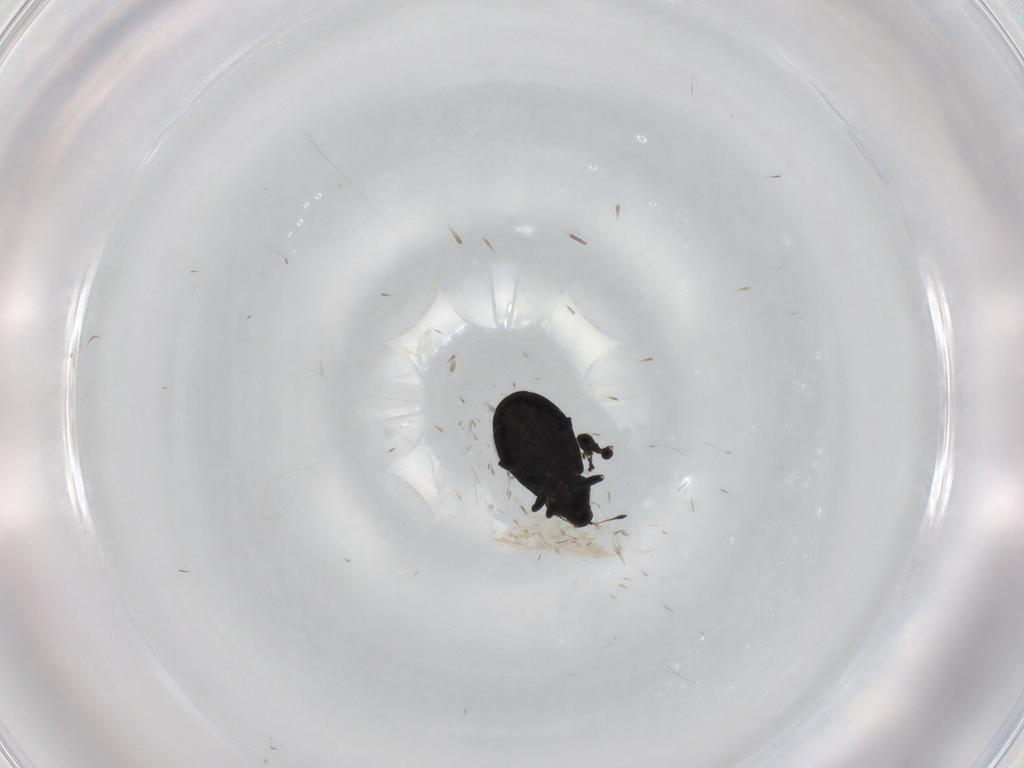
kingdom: Animalia
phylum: Arthropoda
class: Insecta
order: Coleoptera
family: Curculionidae
